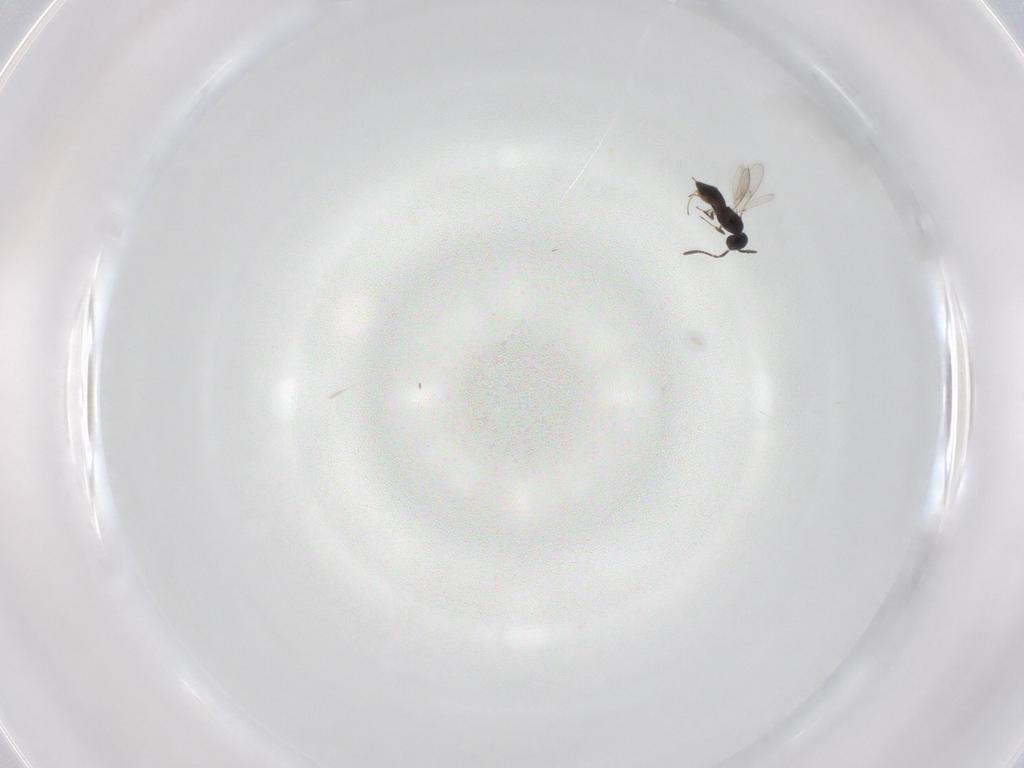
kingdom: Animalia
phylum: Arthropoda
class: Insecta
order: Hymenoptera
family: Scelionidae
